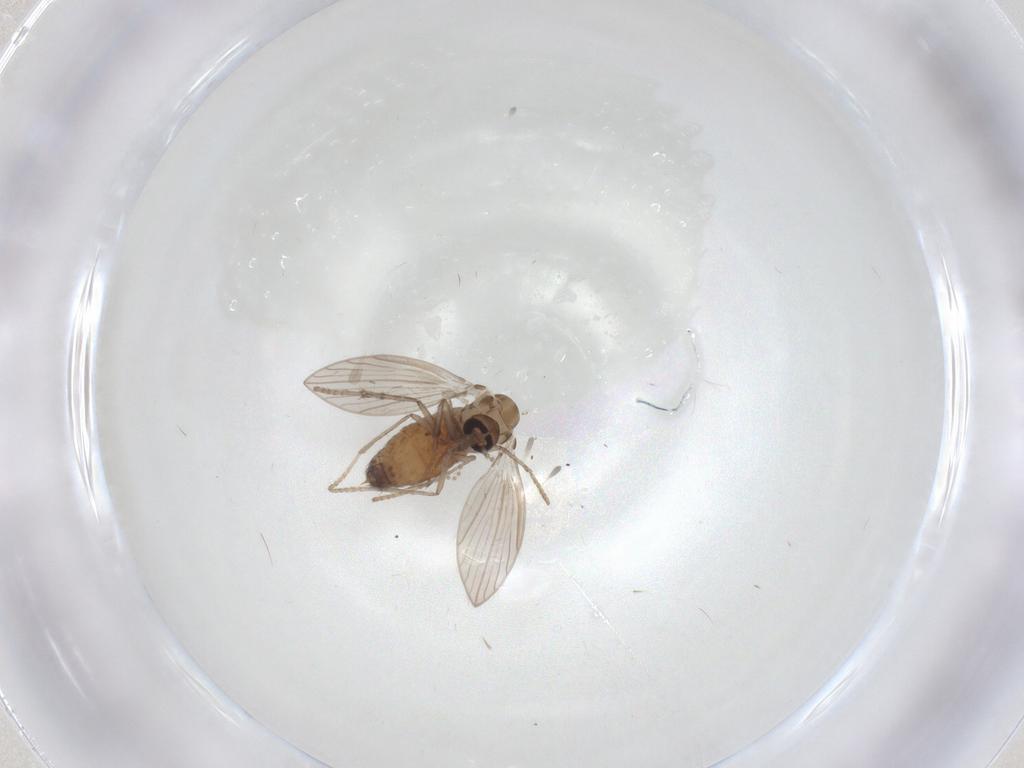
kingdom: Animalia
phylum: Arthropoda
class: Insecta
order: Diptera
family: Psychodidae
